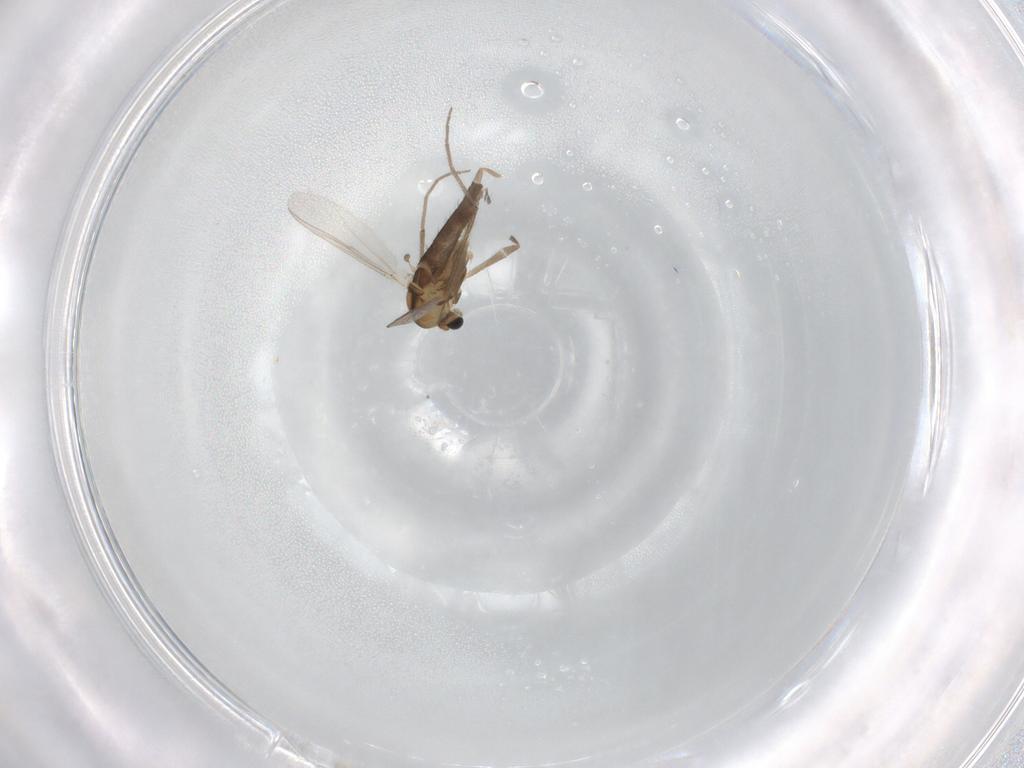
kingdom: Animalia
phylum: Arthropoda
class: Insecta
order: Diptera
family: Chironomidae
